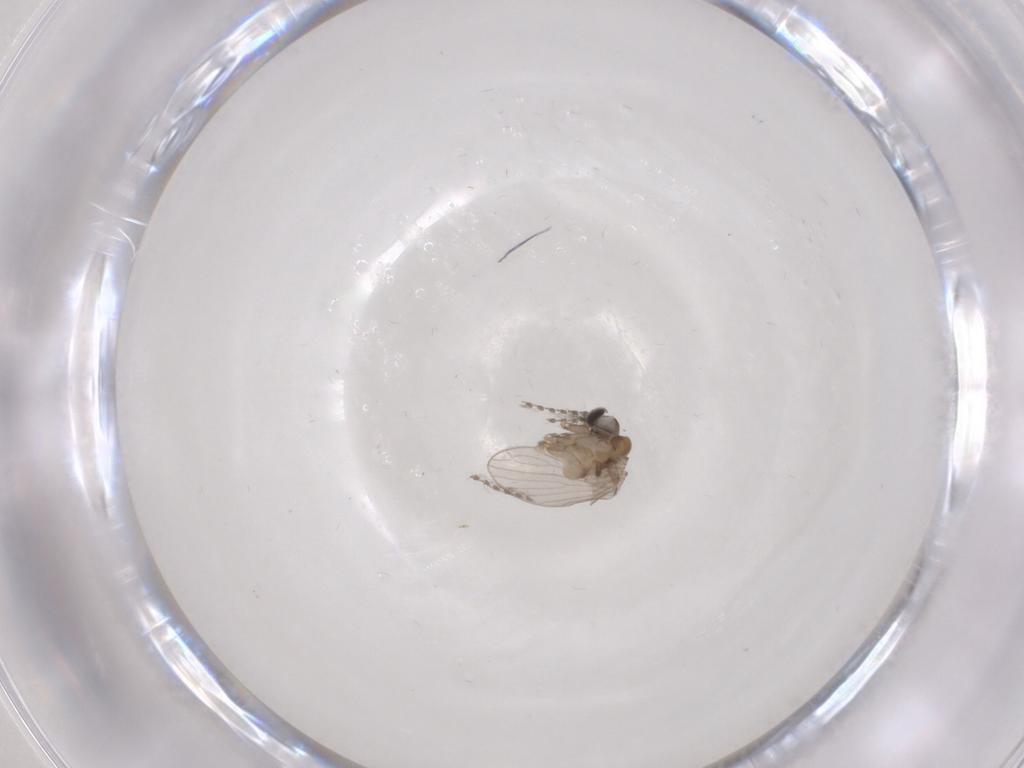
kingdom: Animalia
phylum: Arthropoda
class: Insecta
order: Diptera
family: Psychodidae
